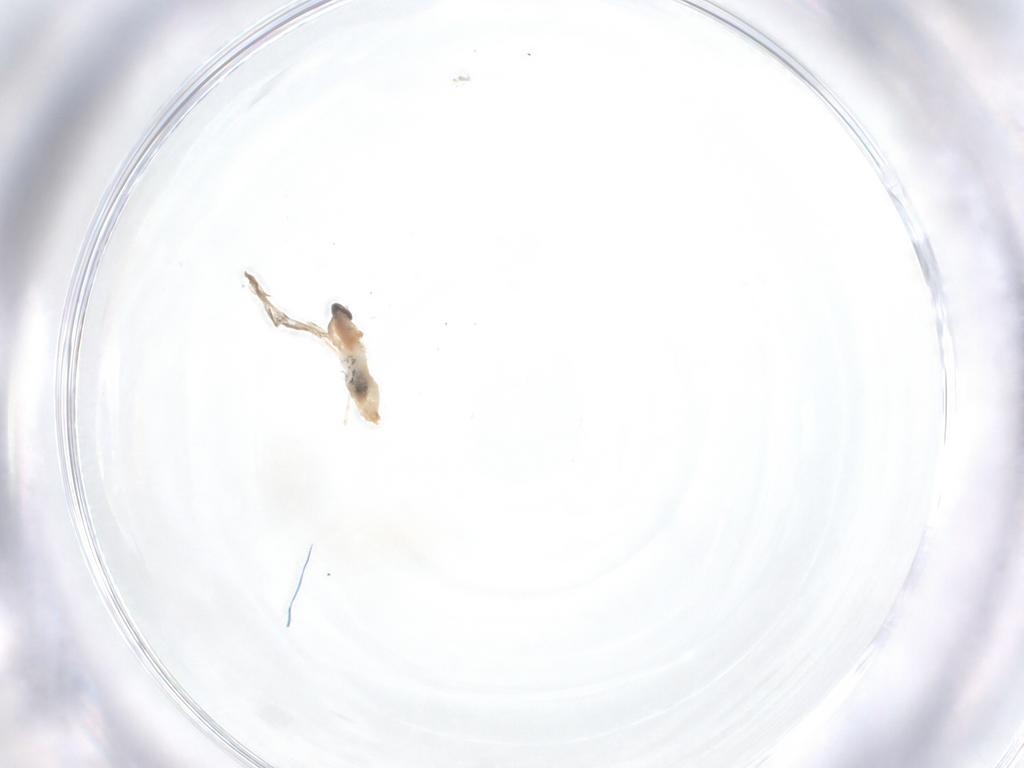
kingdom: Animalia
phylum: Arthropoda
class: Insecta
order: Diptera
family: Cecidomyiidae
